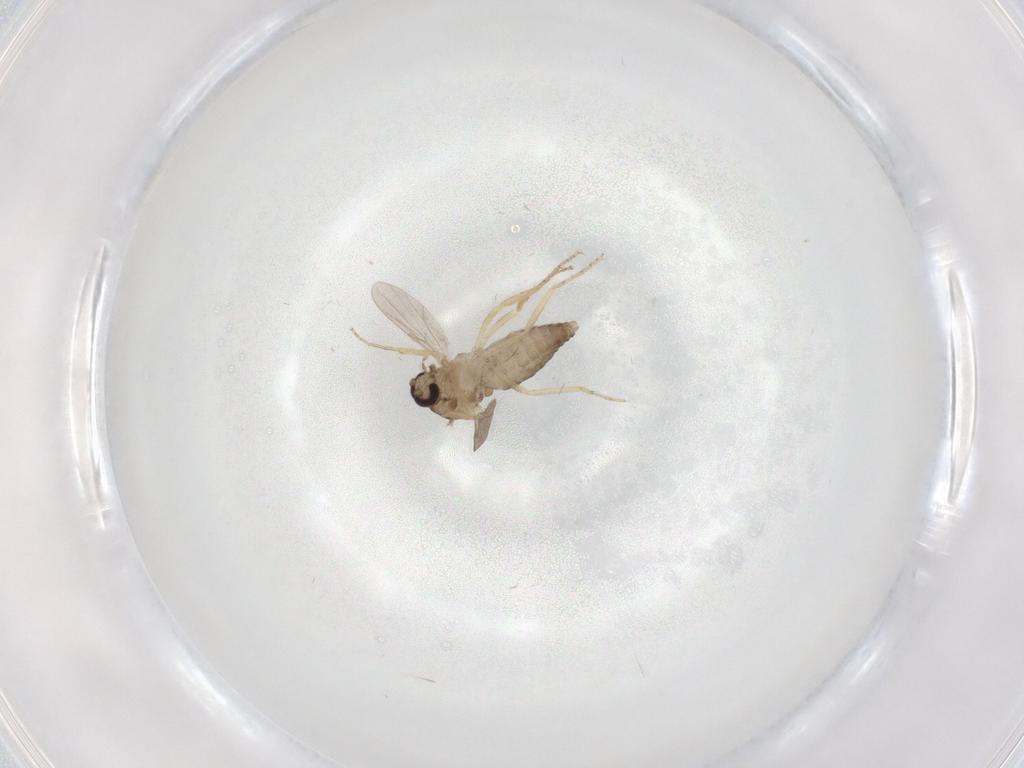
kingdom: Animalia
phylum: Arthropoda
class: Insecta
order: Diptera
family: Ceratopogonidae
